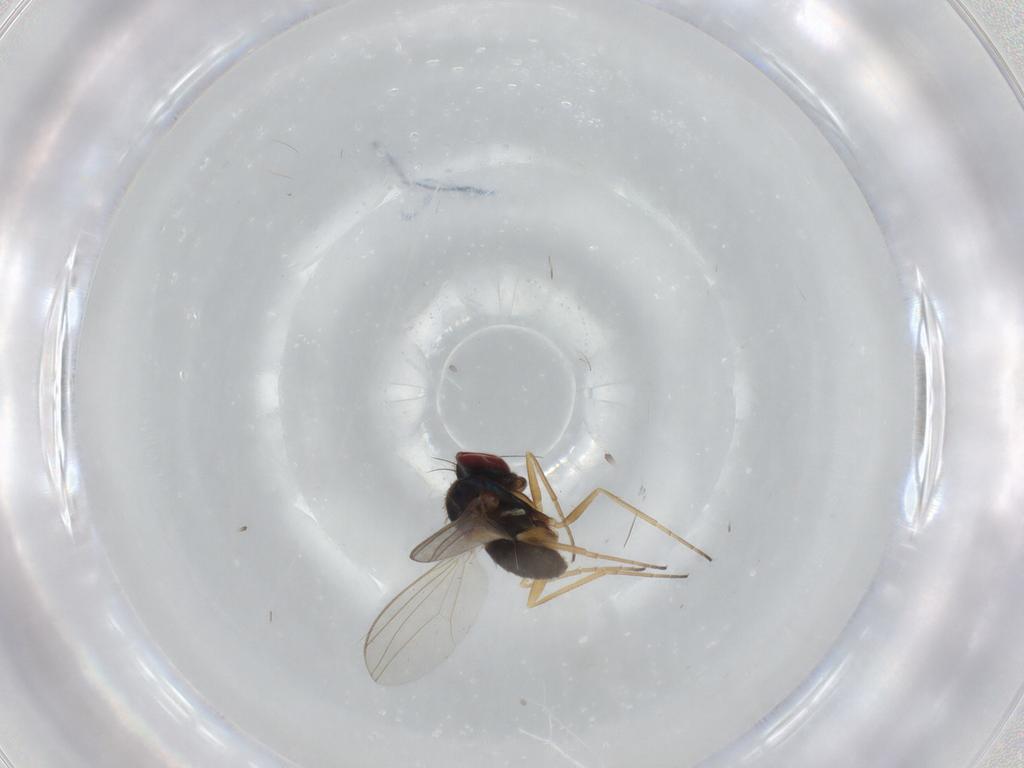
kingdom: Animalia
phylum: Arthropoda
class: Insecta
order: Diptera
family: Dolichopodidae
